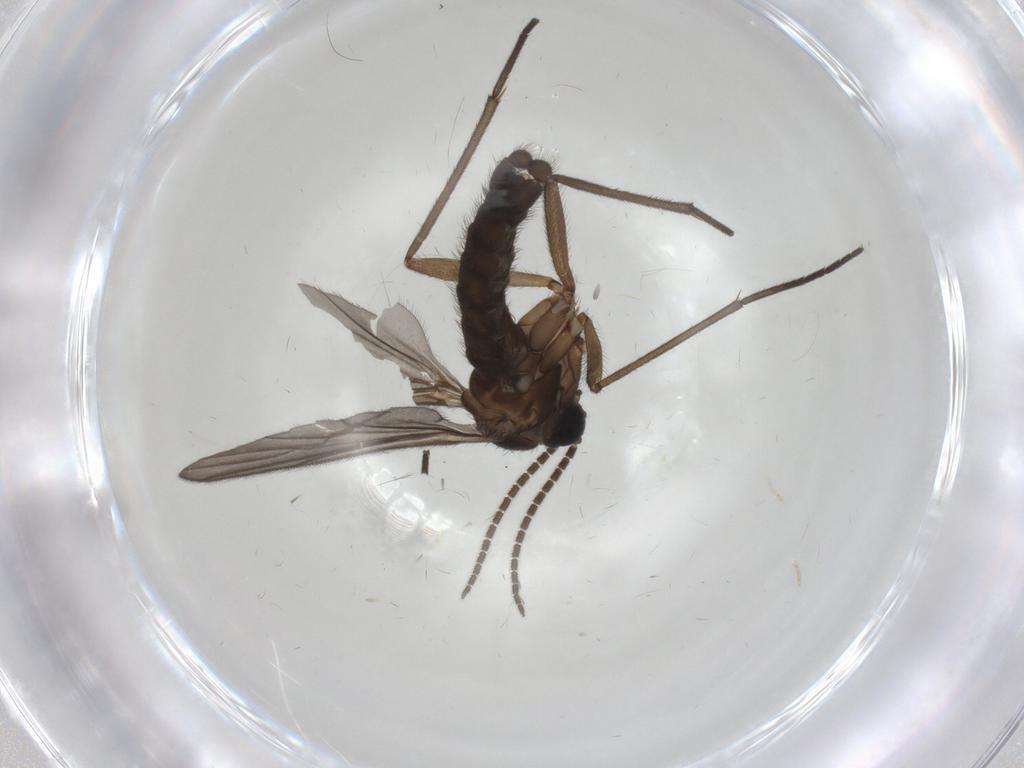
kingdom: Animalia
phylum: Arthropoda
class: Insecta
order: Diptera
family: Sciaridae
